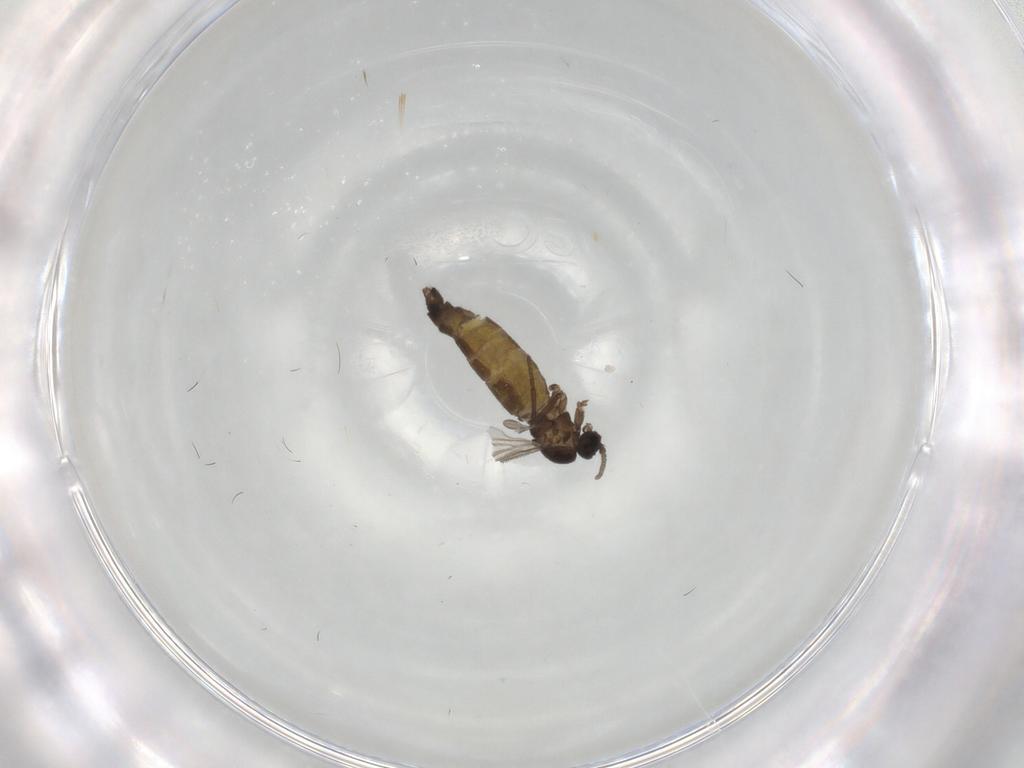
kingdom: Animalia
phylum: Arthropoda
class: Insecta
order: Diptera
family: Sciaridae
